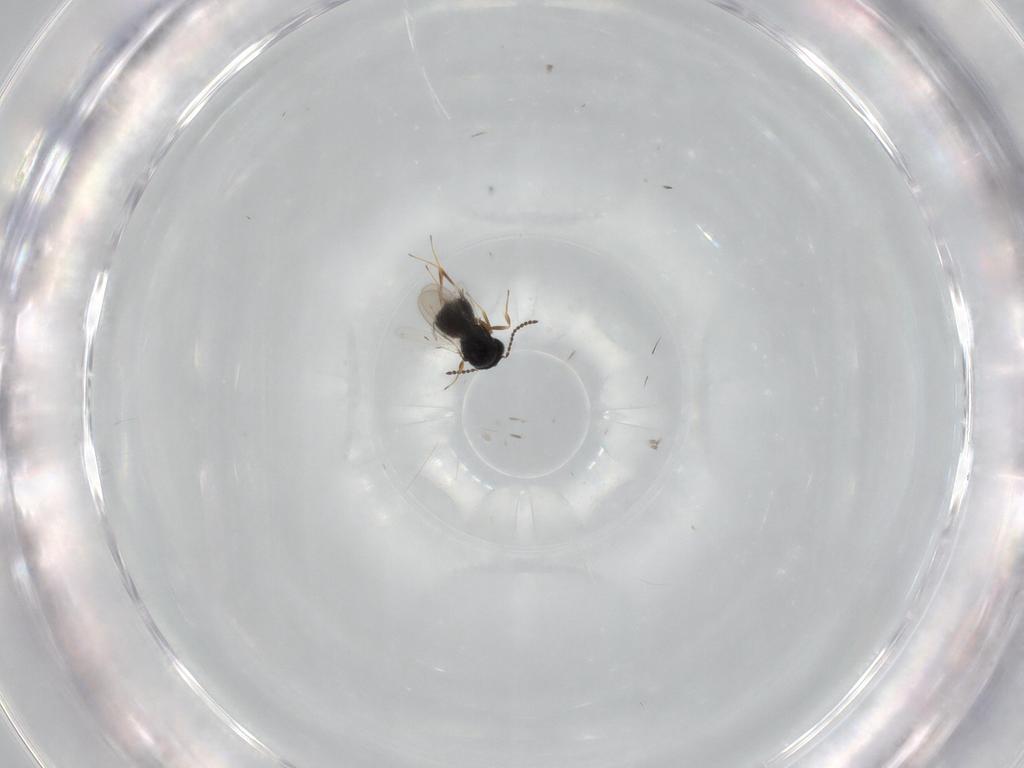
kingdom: Animalia
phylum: Arthropoda
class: Insecta
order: Hymenoptera
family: Scelionidae
